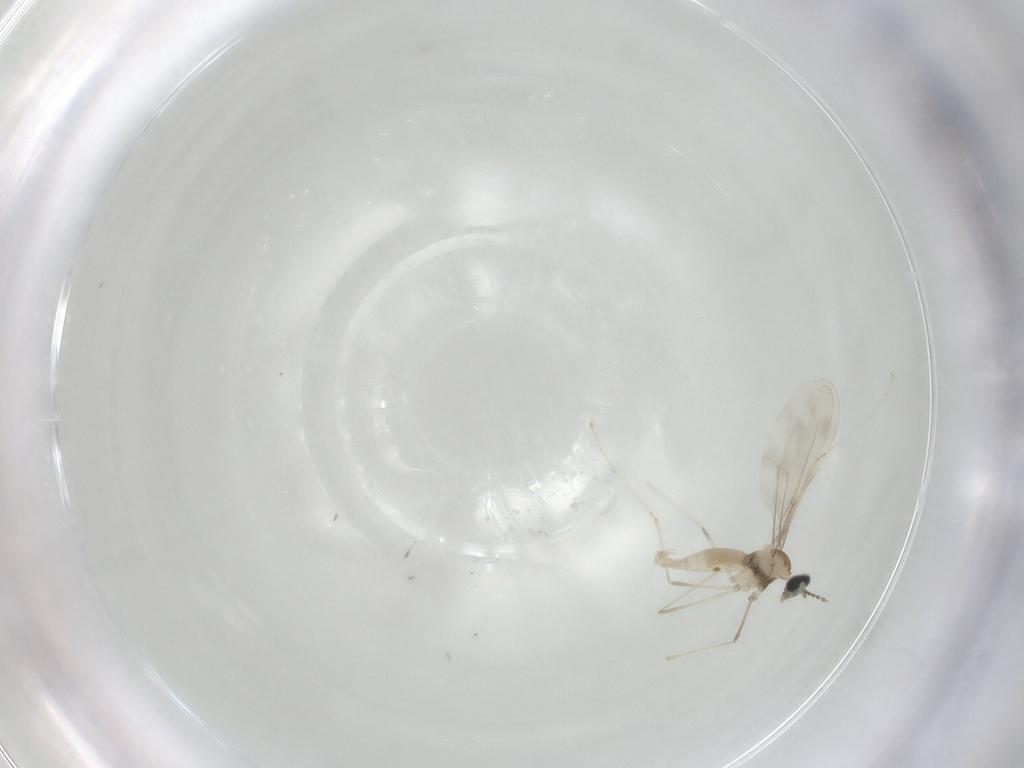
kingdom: Animalia
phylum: Arthropoda
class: Insecta
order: Diptera
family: Cecidomyiidae
